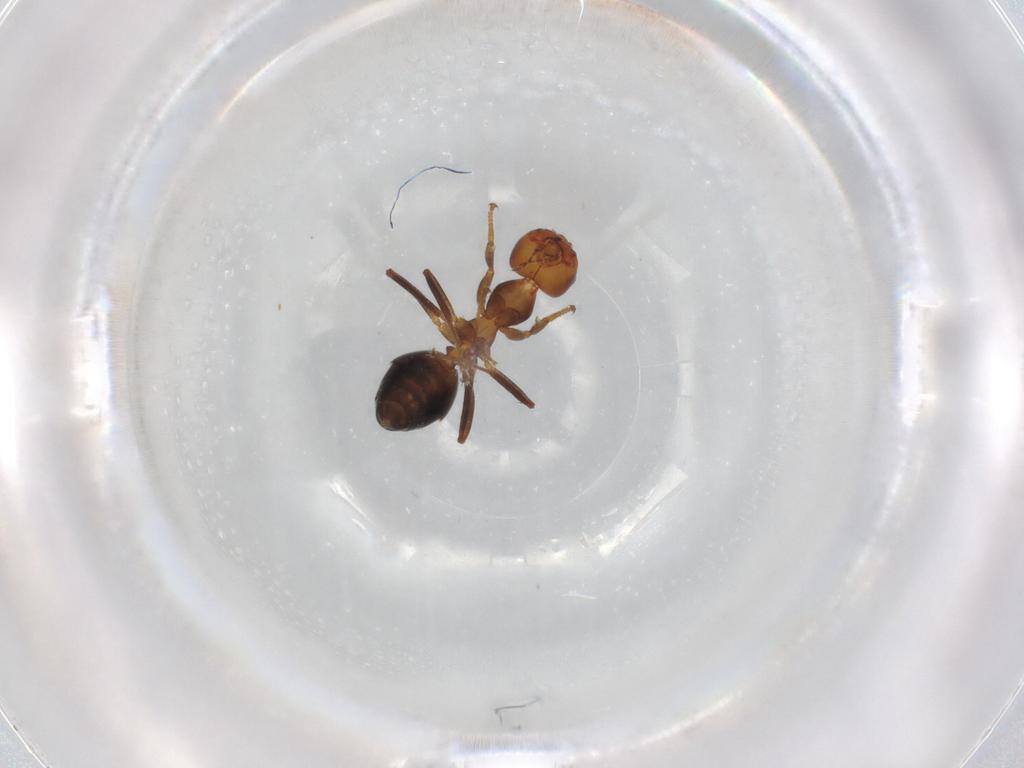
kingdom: Animalia
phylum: Arthropoda
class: Insecta
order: Hymenoptera
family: Formicidae
